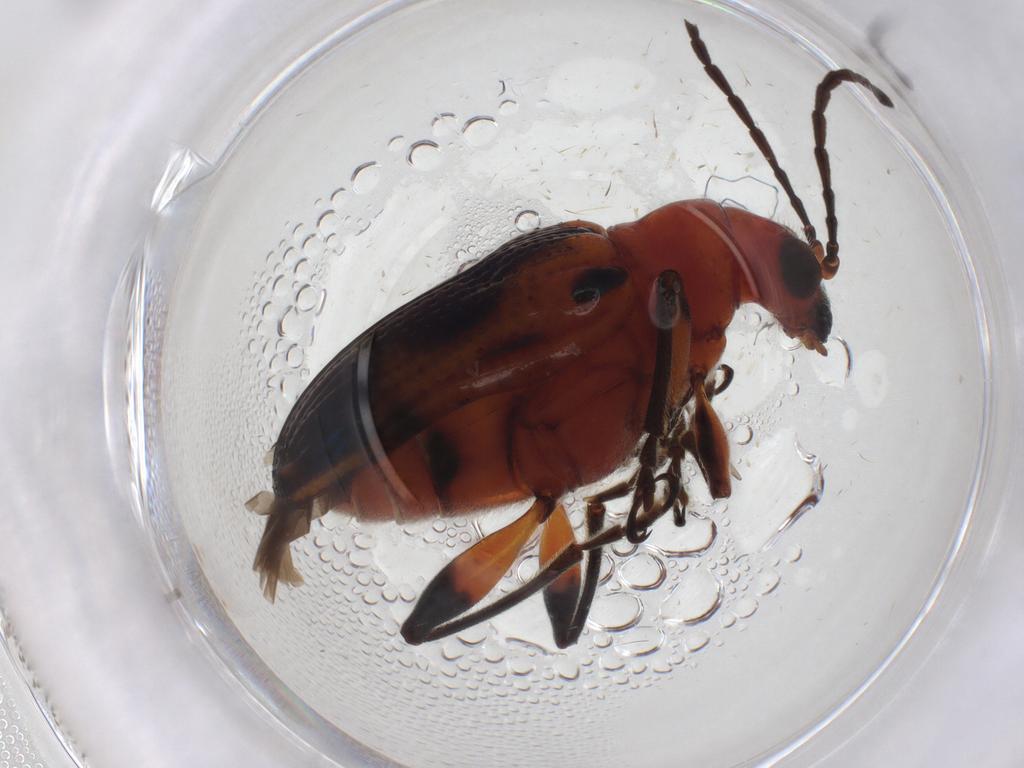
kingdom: Animalia
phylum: Arthropoda
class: Insecta
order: Coleoptera
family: Chrysomelidae
